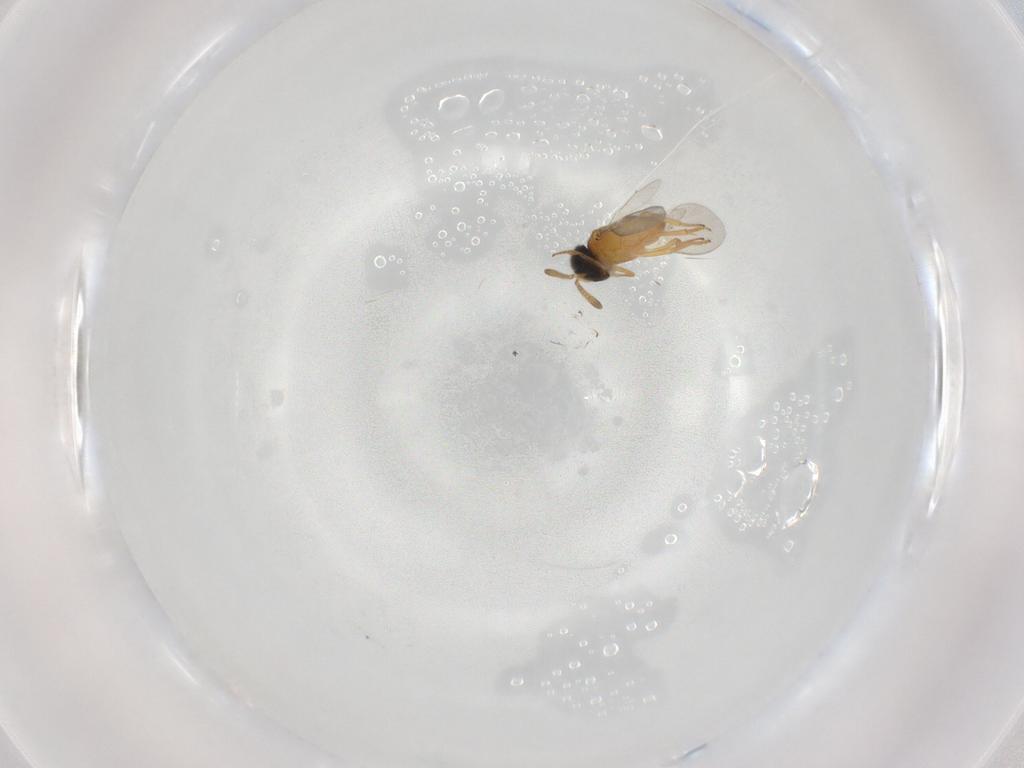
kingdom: Animalia
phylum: Arthropoda
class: Insecta
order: Hymenoptera
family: Encyrtidae
